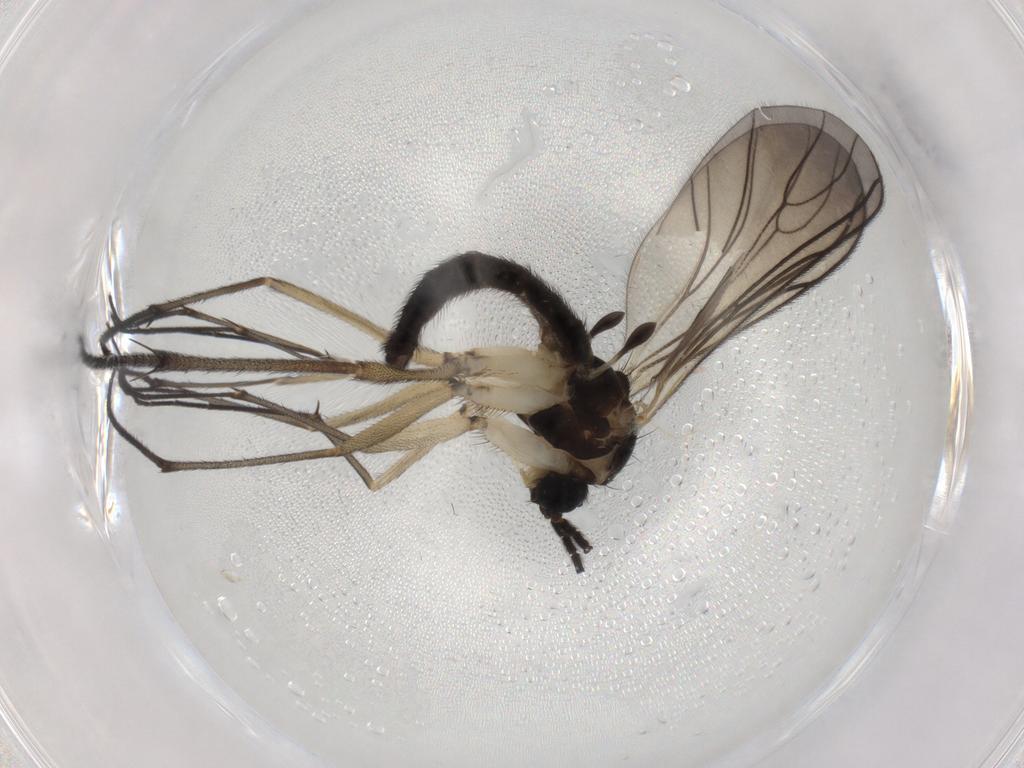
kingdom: Animalia
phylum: Arthropoda
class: Insecta
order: Diptera
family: Sciaridae
